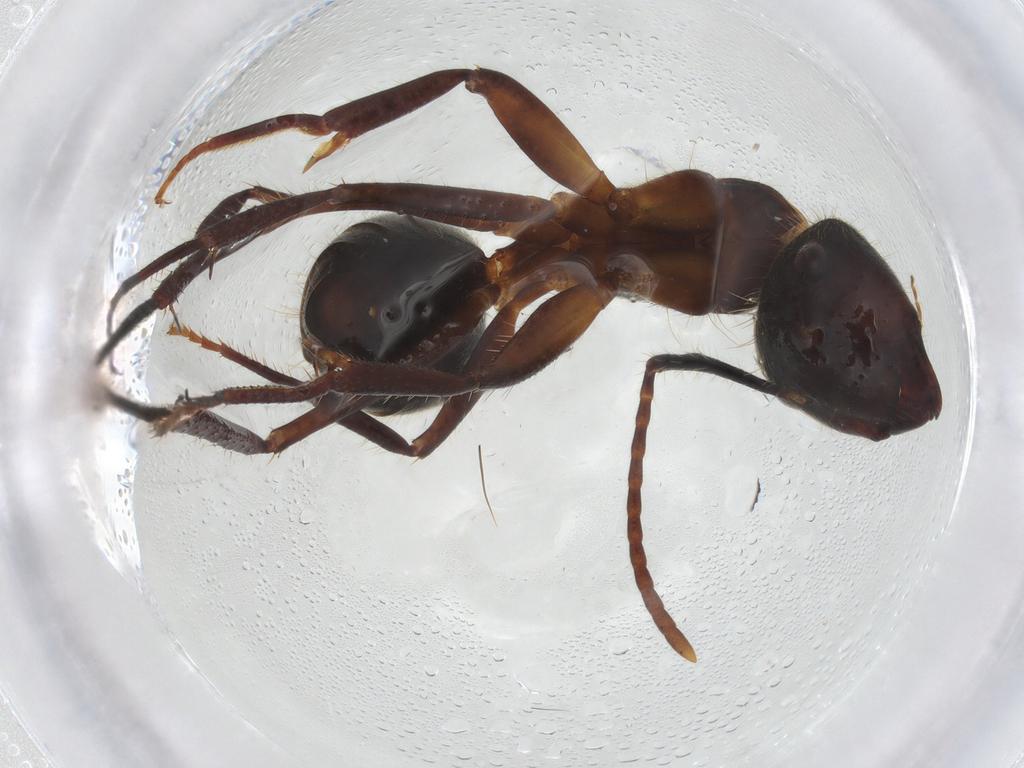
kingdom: Animalia
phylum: Arthropoda
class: Insecta
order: Hymenoptera
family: Formicidae
